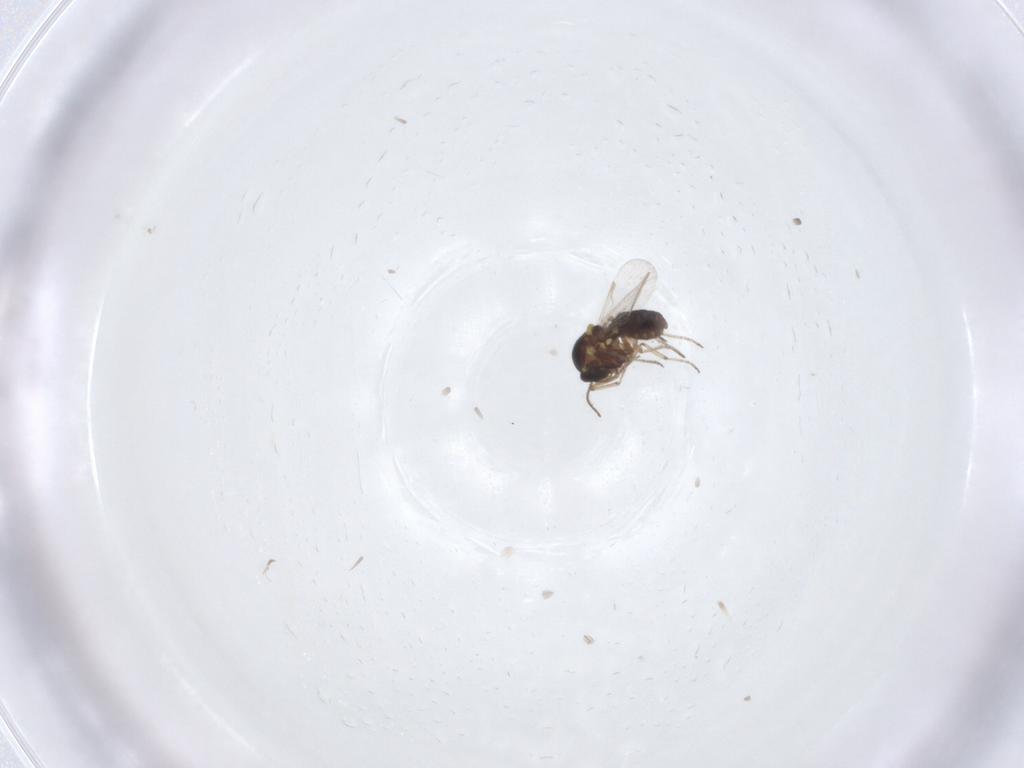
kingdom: Animalia
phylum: Arthropoda
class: Insecta
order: Diptera
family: Ceratopogonidae
